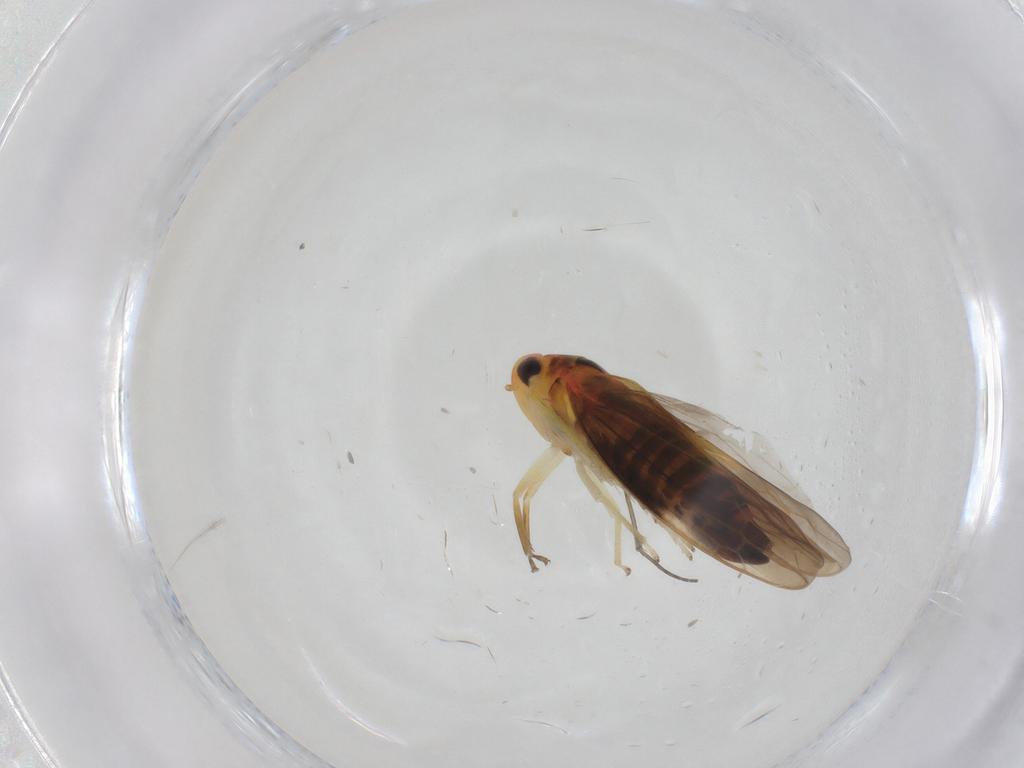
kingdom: Animalia
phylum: Arthropoda
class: Insecta
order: Hemiptera
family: Cicadellidae
